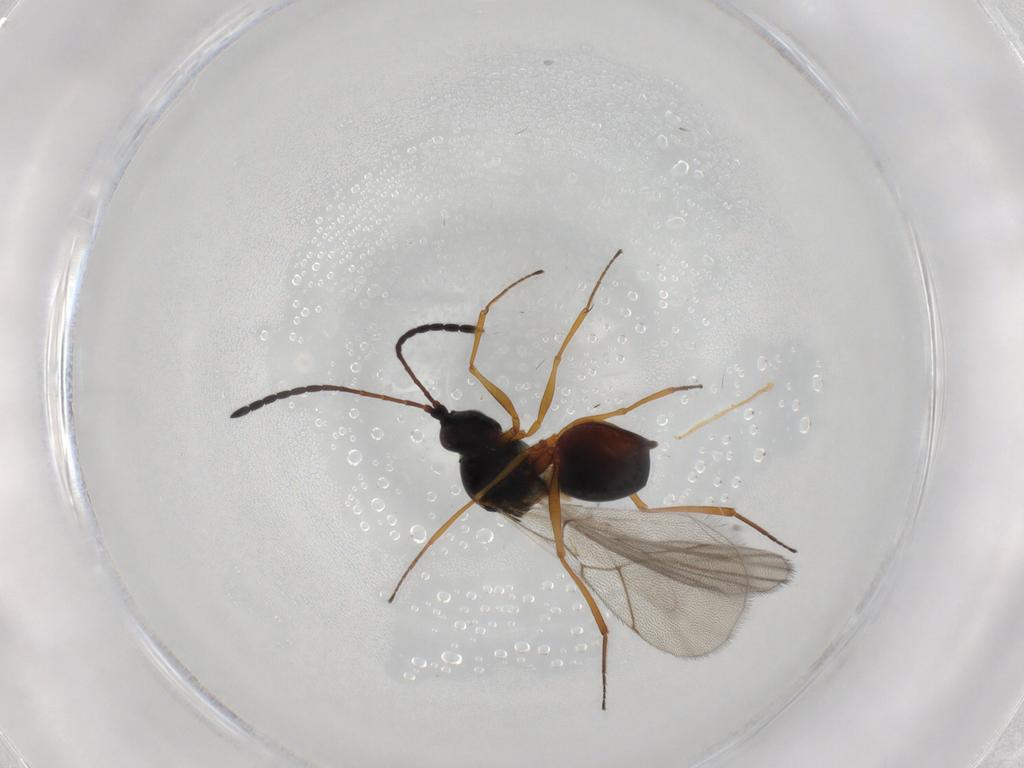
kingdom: Animalia
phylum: Arthropoda
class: Insecta
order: Hymenoptera
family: Figitidae
